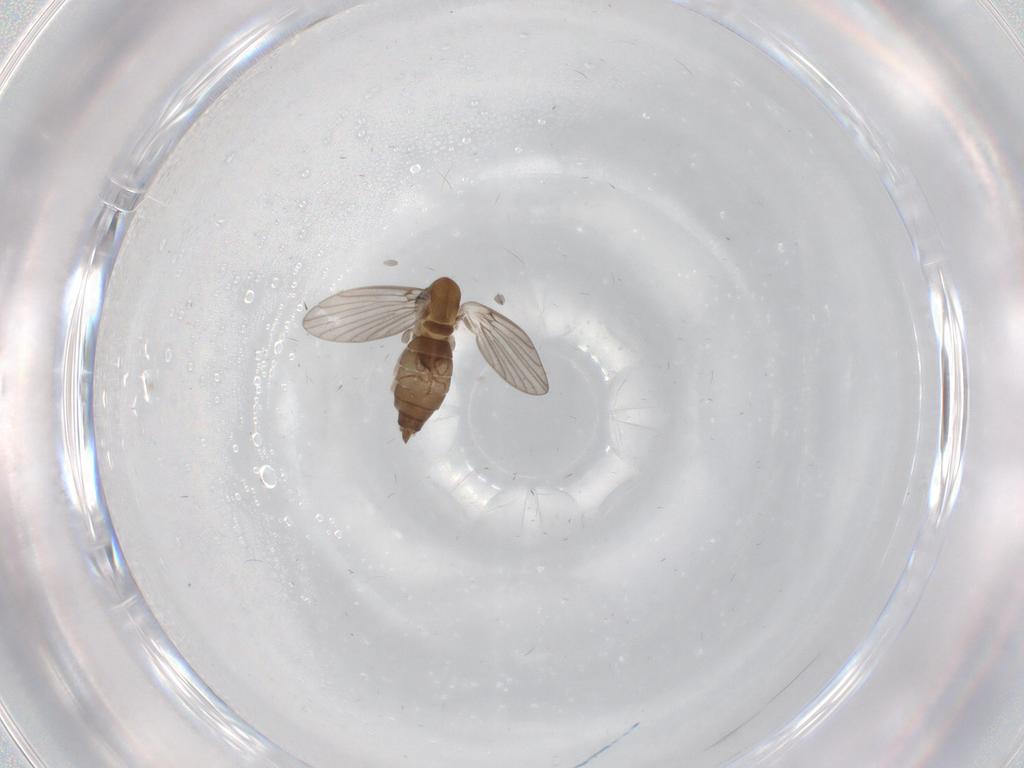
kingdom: Animalia
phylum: Arthropoda
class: Insecta
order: Diptera
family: Psychodidae
